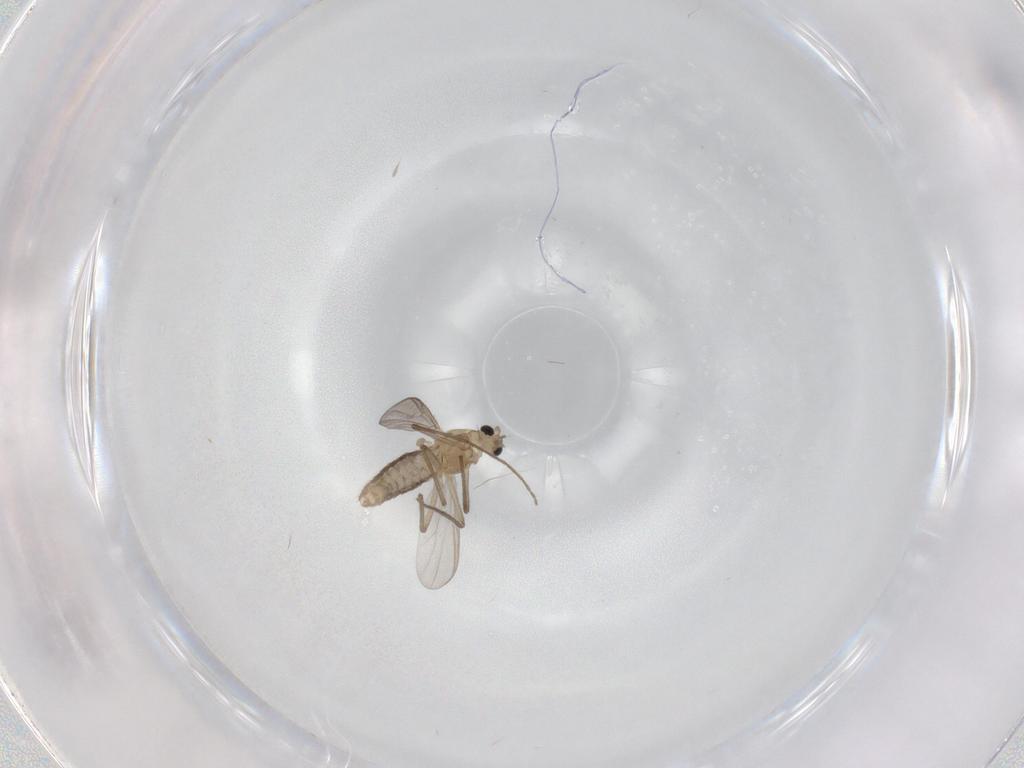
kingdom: Animalia
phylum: Arthropoda
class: Insecta
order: Diptera
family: Chironomidae
